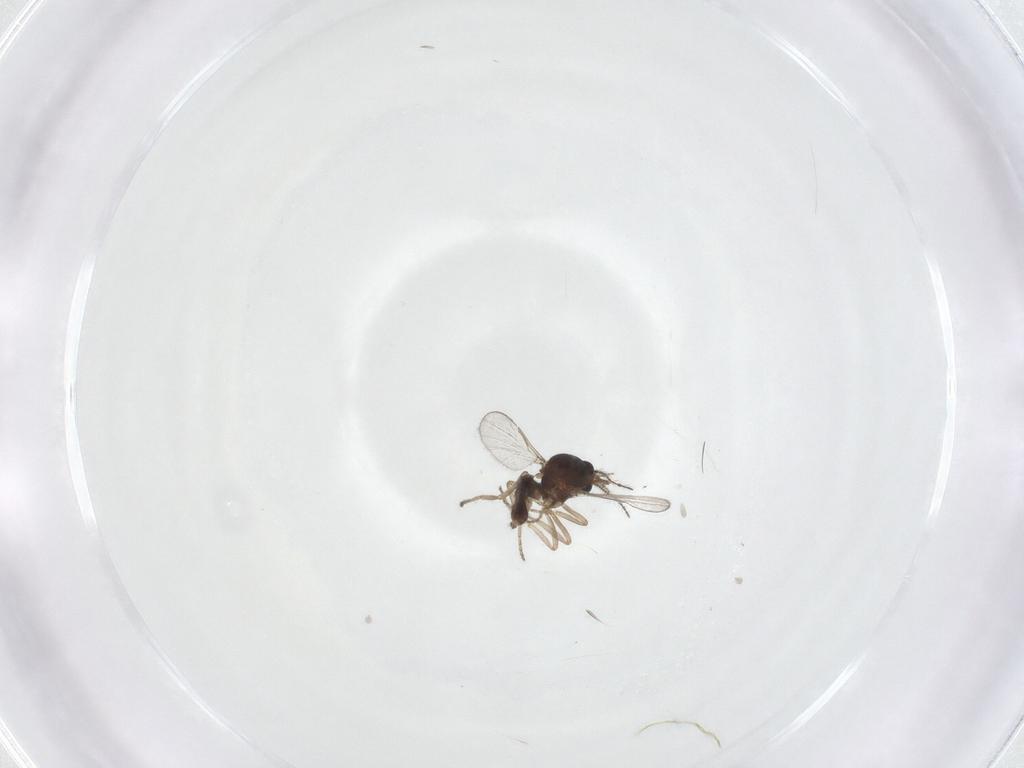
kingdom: Animalia
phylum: Arthropoda
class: Insecta
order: Diptera
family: Ceratopogonidae
